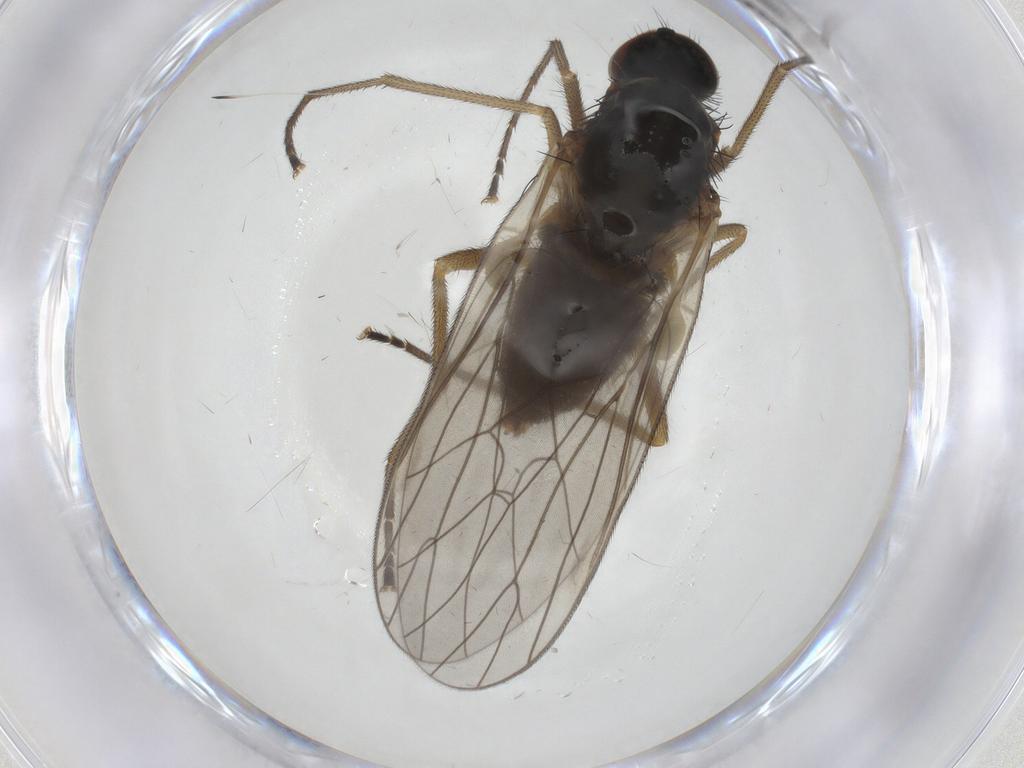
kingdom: Animalia
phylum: Arthropoda
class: Insecta
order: Diptera
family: Brachystomatidae
